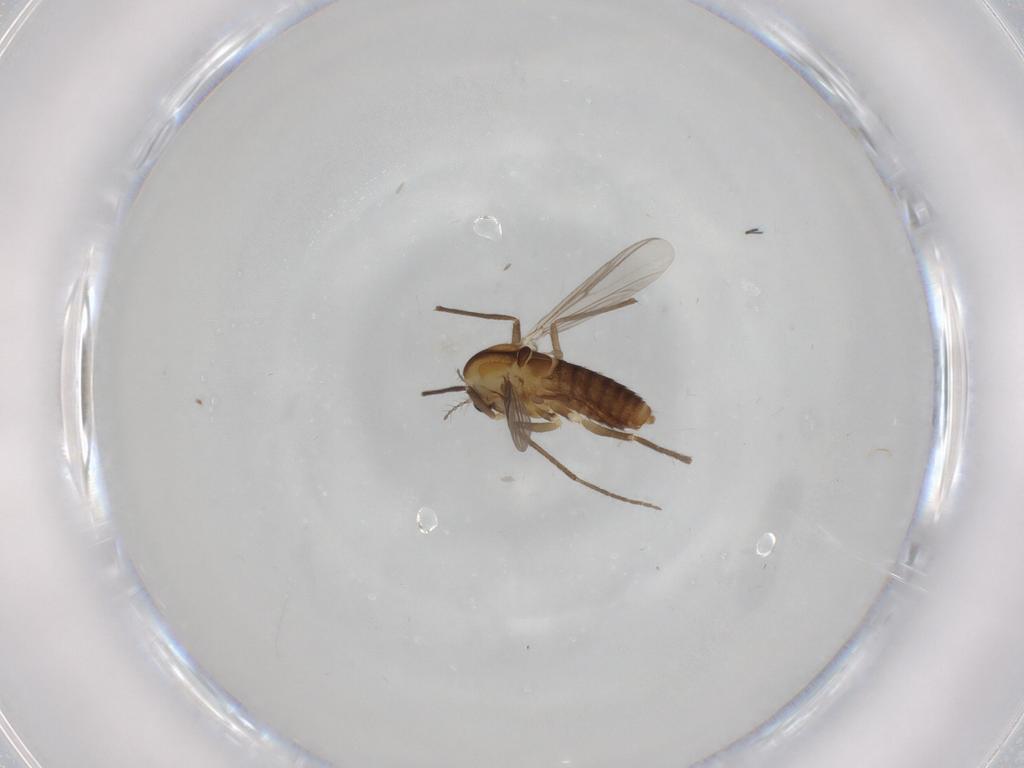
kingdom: Animalia
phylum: Arthropoda
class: Insecta
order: Diptera
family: Chironomidae
